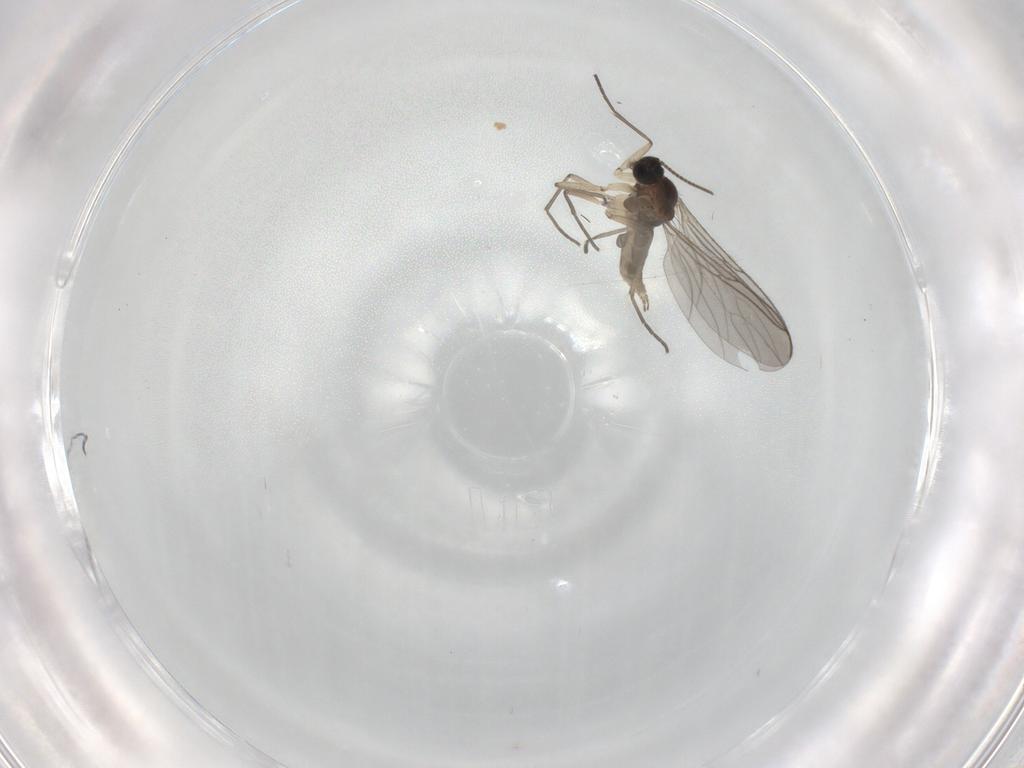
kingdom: Animalia
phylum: Arthropoda
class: Insecta
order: Diptera
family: Sciaridae
